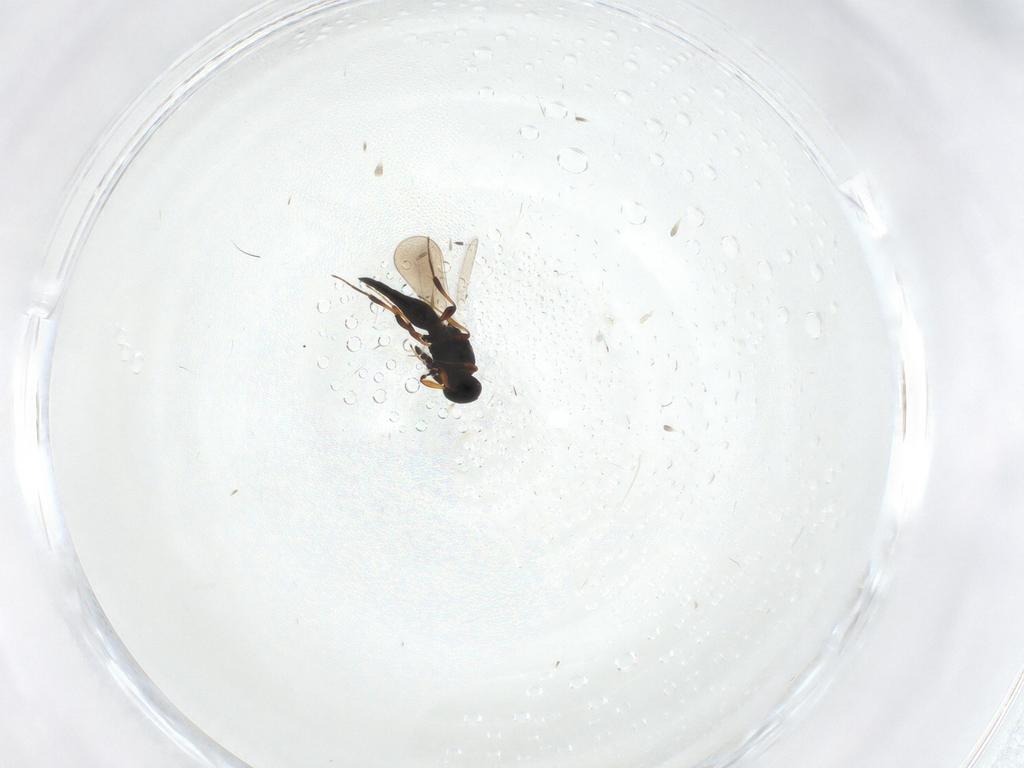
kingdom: Animalia
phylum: Arthropoda
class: Insecta
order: Hymenoptera
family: Platygastridae
